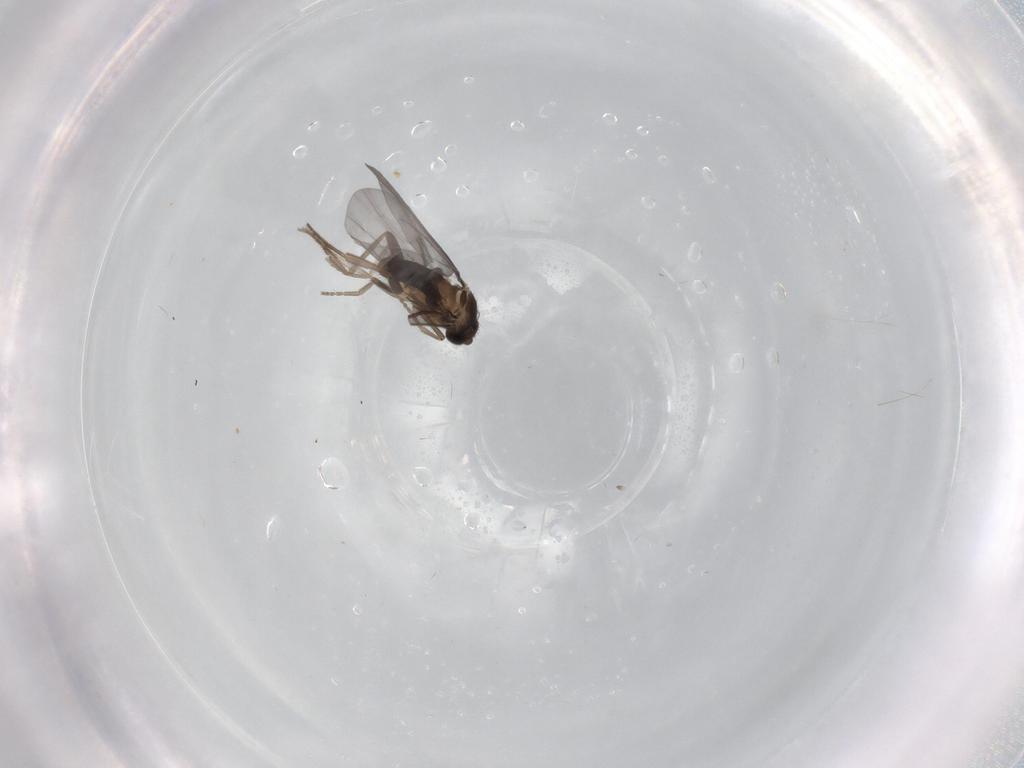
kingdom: Animalia
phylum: Arthropoda
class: Insecta
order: Diptera
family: Phoridae
